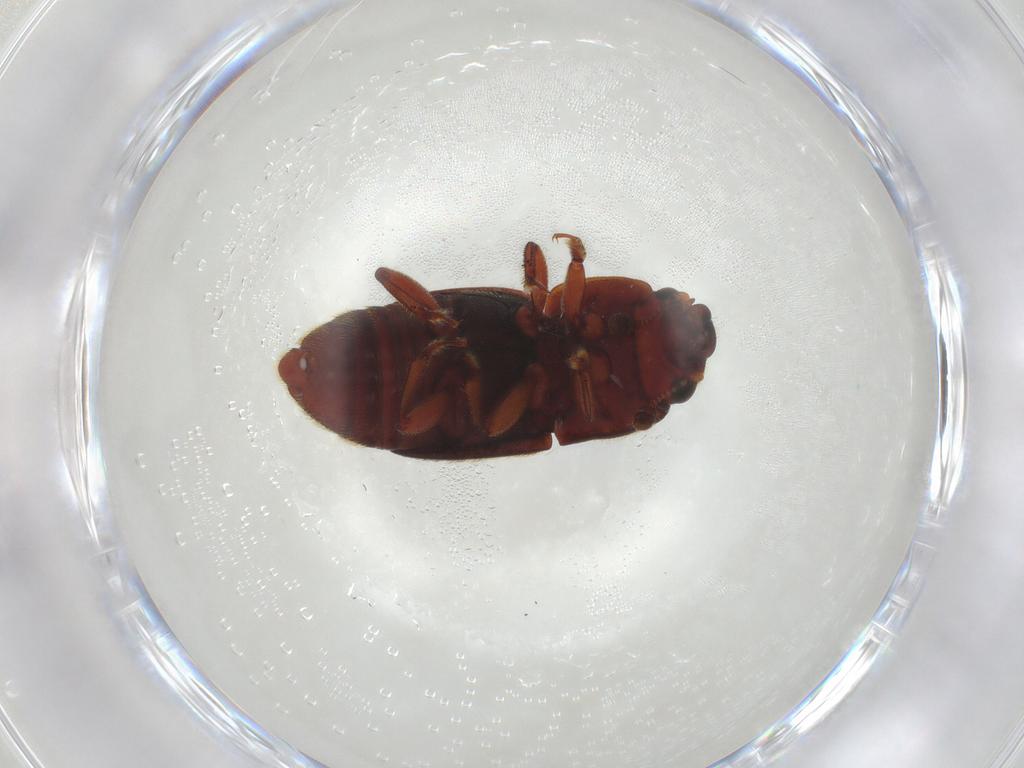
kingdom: Animalia
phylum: Arthropoda
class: Insecta
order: Coleoptera
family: Nitidulidae
